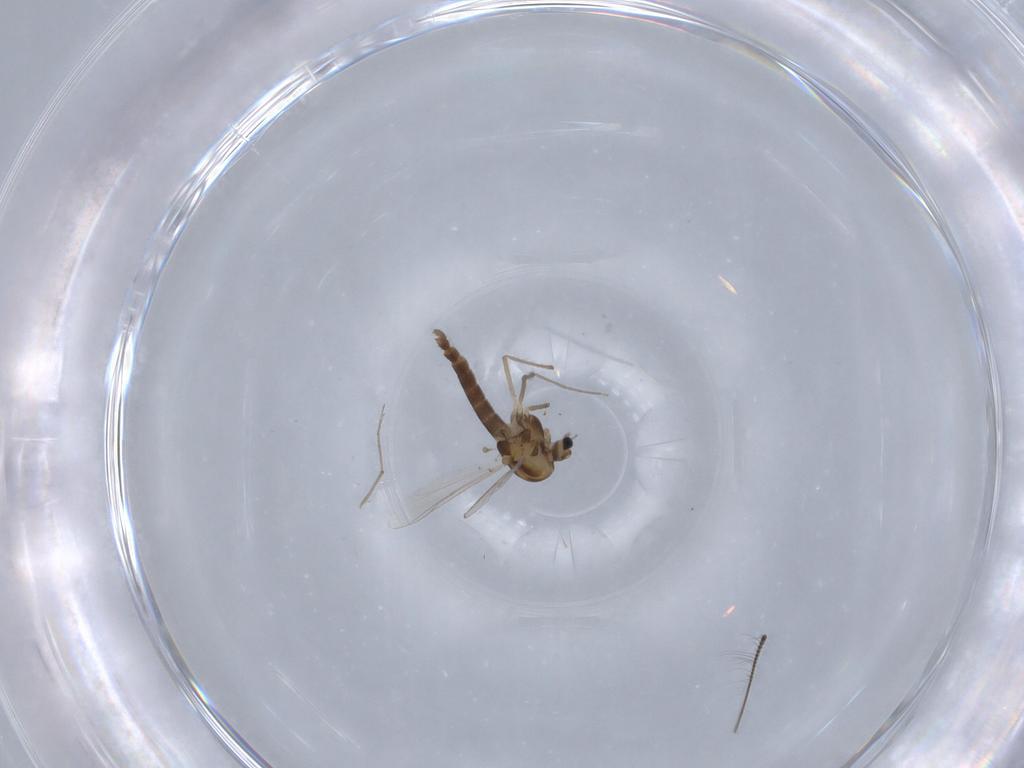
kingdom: Animalia
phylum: Arthropoda
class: Insecta
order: Diptera
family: Chironomidae
